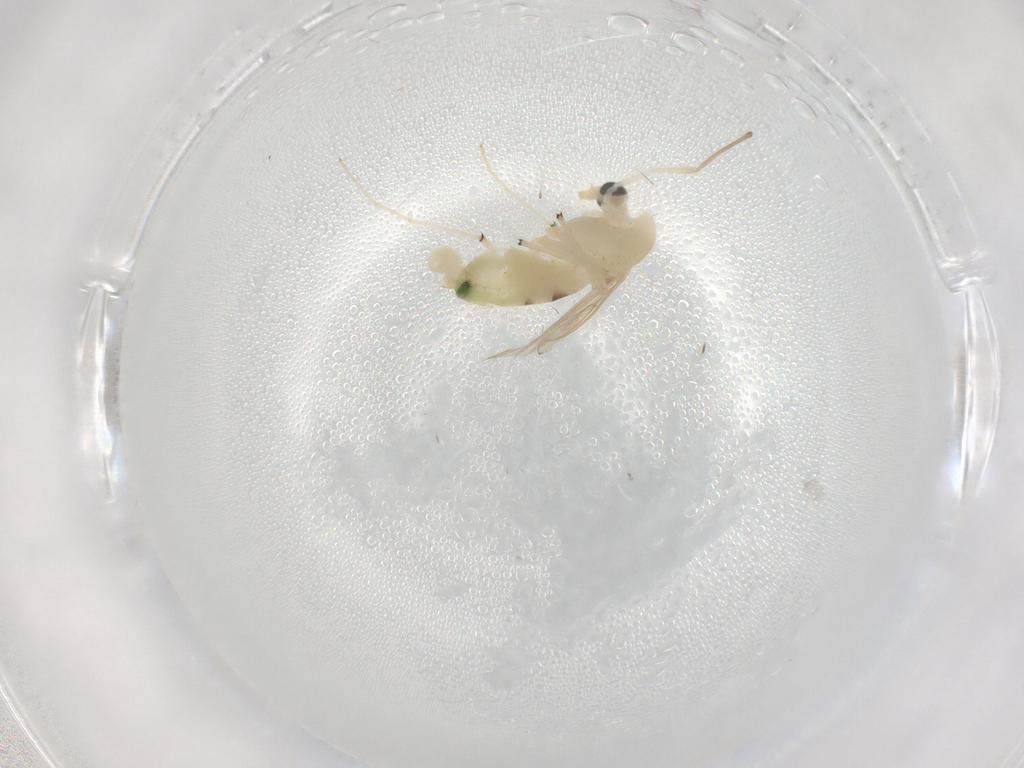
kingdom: Animalia
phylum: Arthropoda
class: Insecta
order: Diptera
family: Chironomidae
